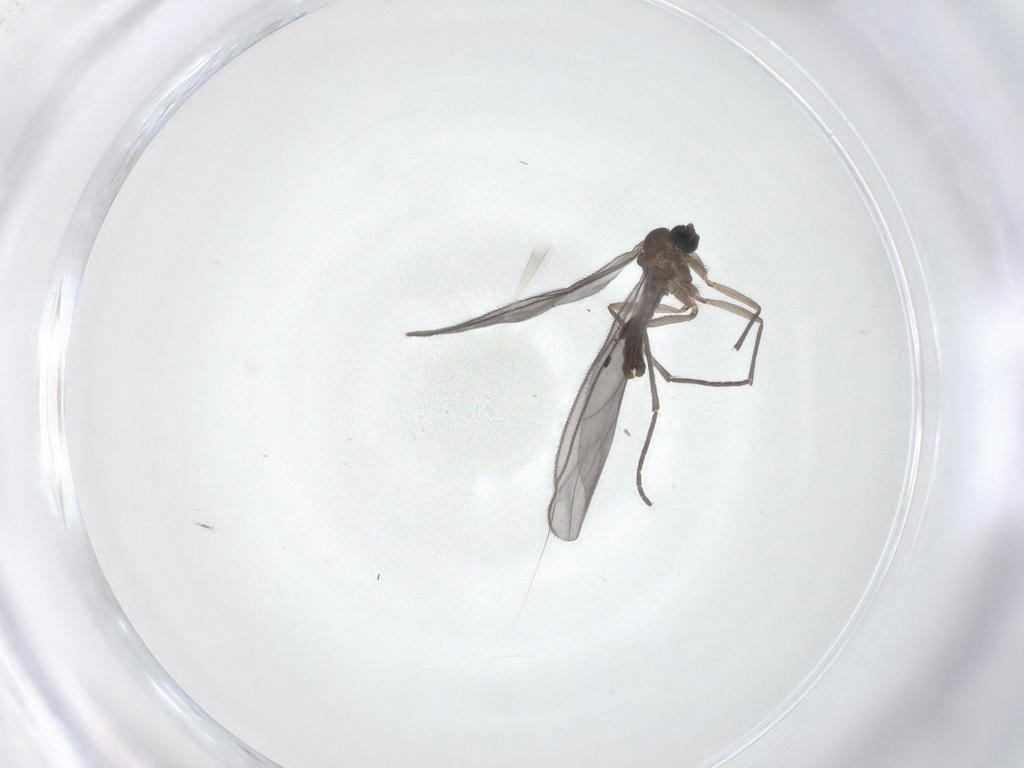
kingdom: Animalia
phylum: Arthropoda
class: Insecta
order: Diptera
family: Sciaridae
